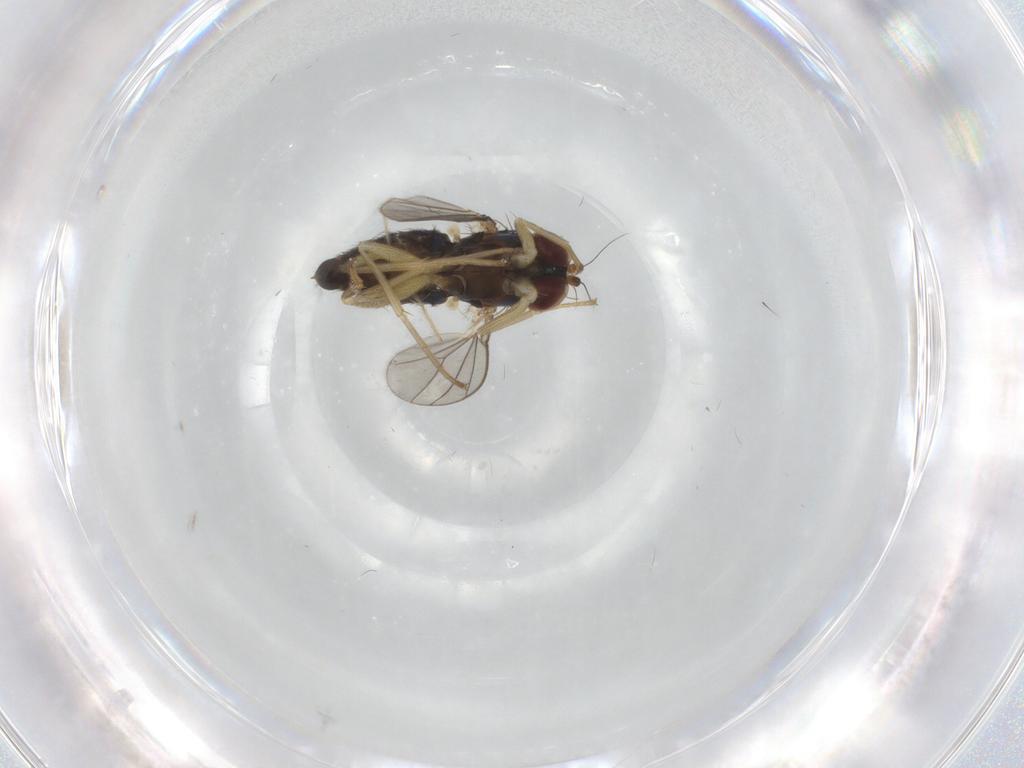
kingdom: Animalia
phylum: Arthropoda
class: Insecta
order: Diptera
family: Dolichopodidae
